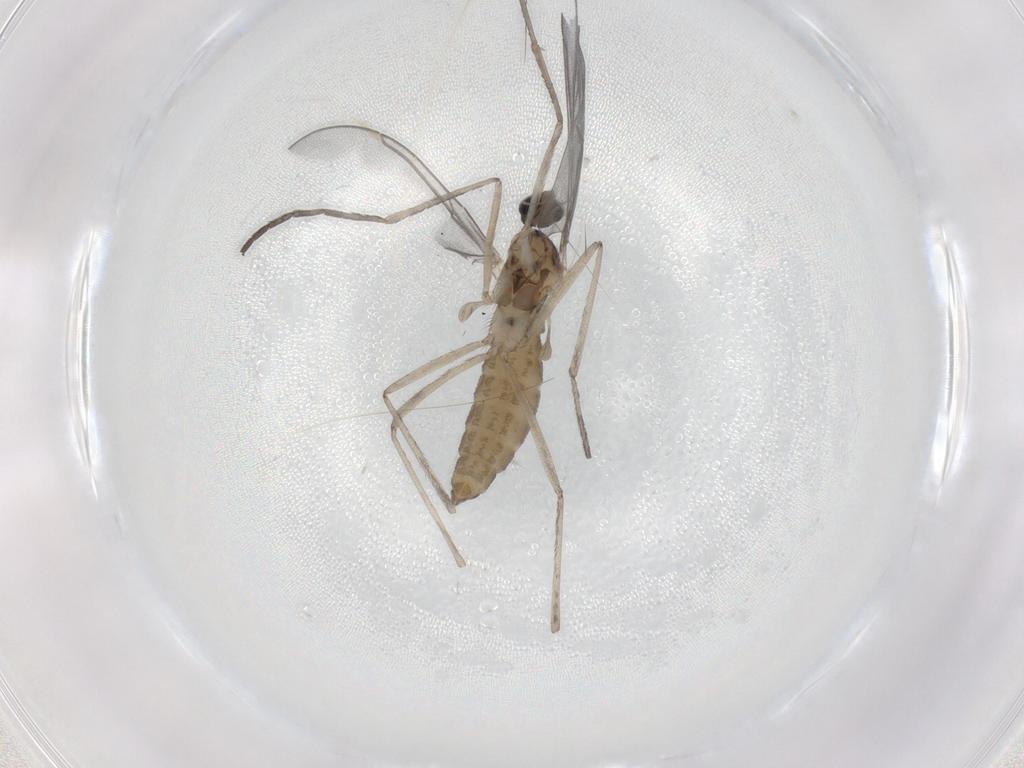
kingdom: Animalia
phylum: Arthropoda
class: Insecta
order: Diptera
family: Cecidomyiidae
